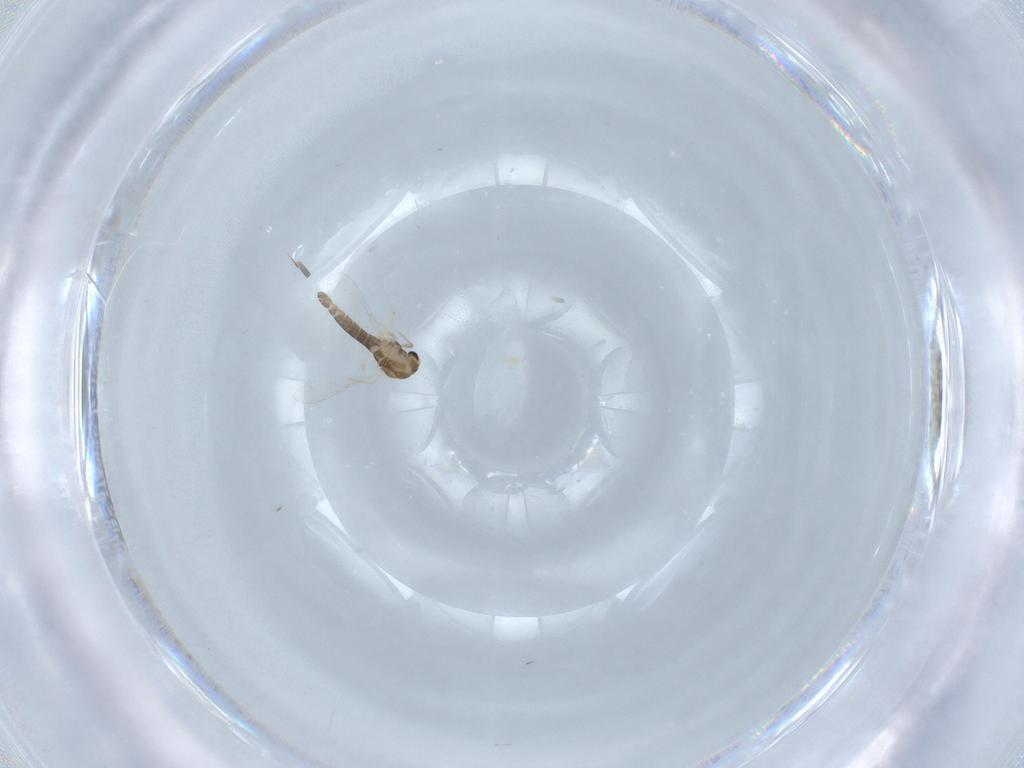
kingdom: Animalia
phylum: Arthropoda
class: Insecta
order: Diptera
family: Chironomidae
